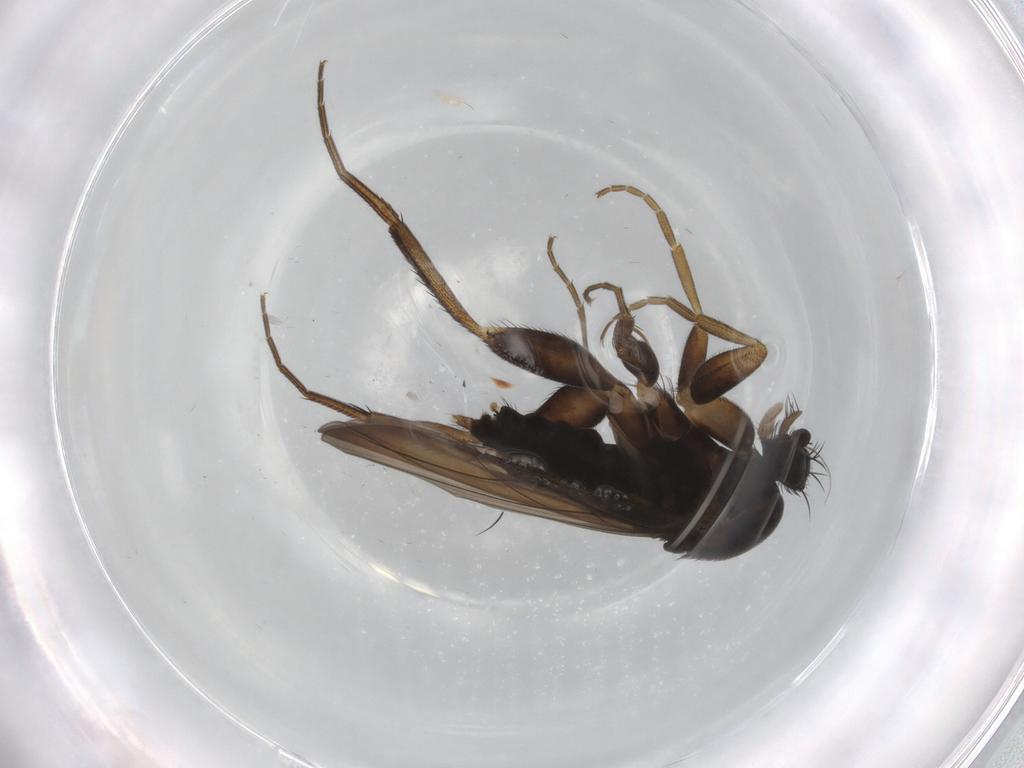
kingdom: Animalia
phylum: Arthropoda
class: Insecta
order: Diptera
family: Phoridae
